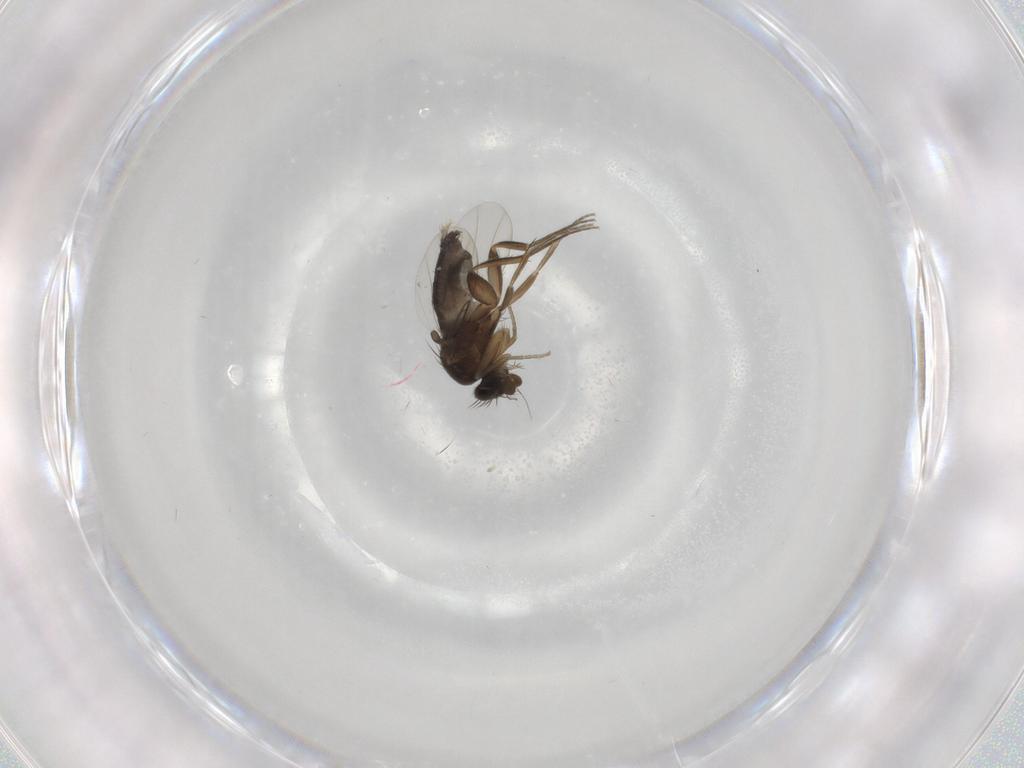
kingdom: Animalia
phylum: Arthropoda
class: Insecta
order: Diptera
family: Phoridae
